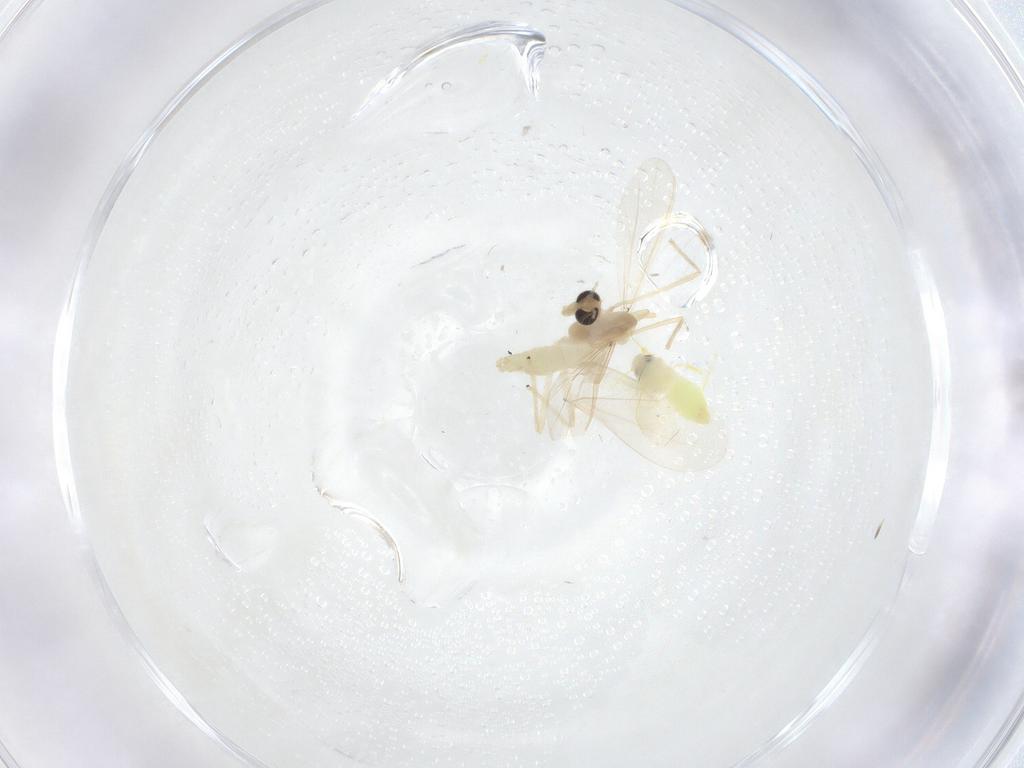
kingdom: Animalia
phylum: Arthropoda
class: Insecta
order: Hemiptera
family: Aleyrodidae
